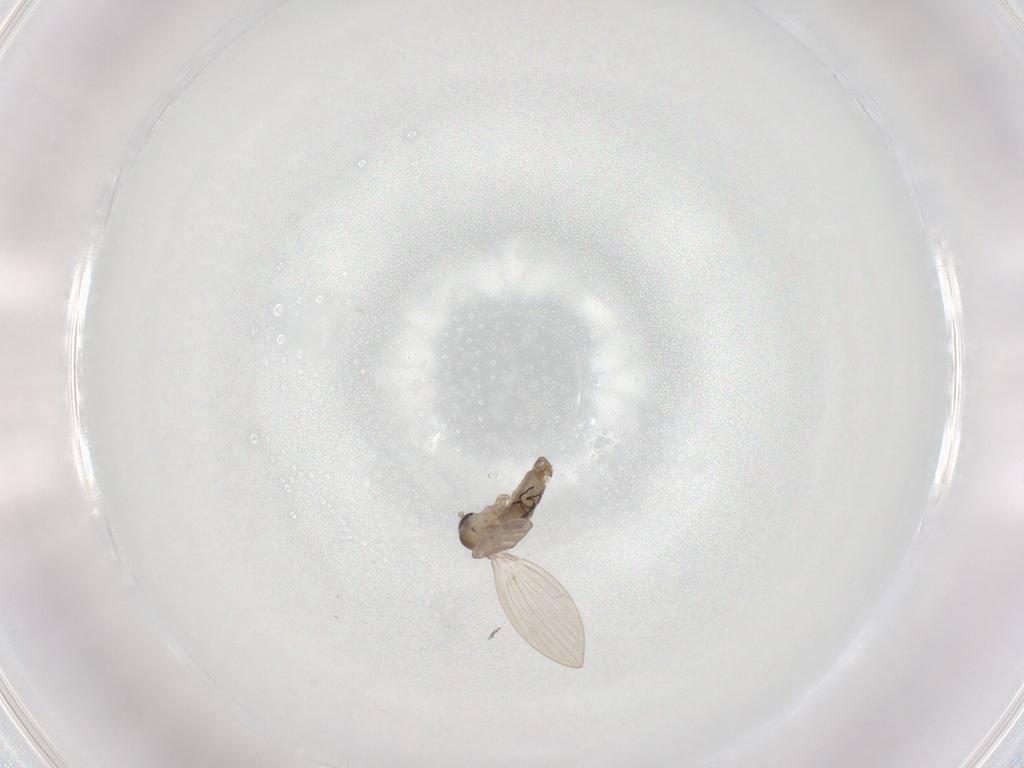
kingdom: Animalia
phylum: Arthropoda
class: Insecta
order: Diptera
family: Psychodidae
